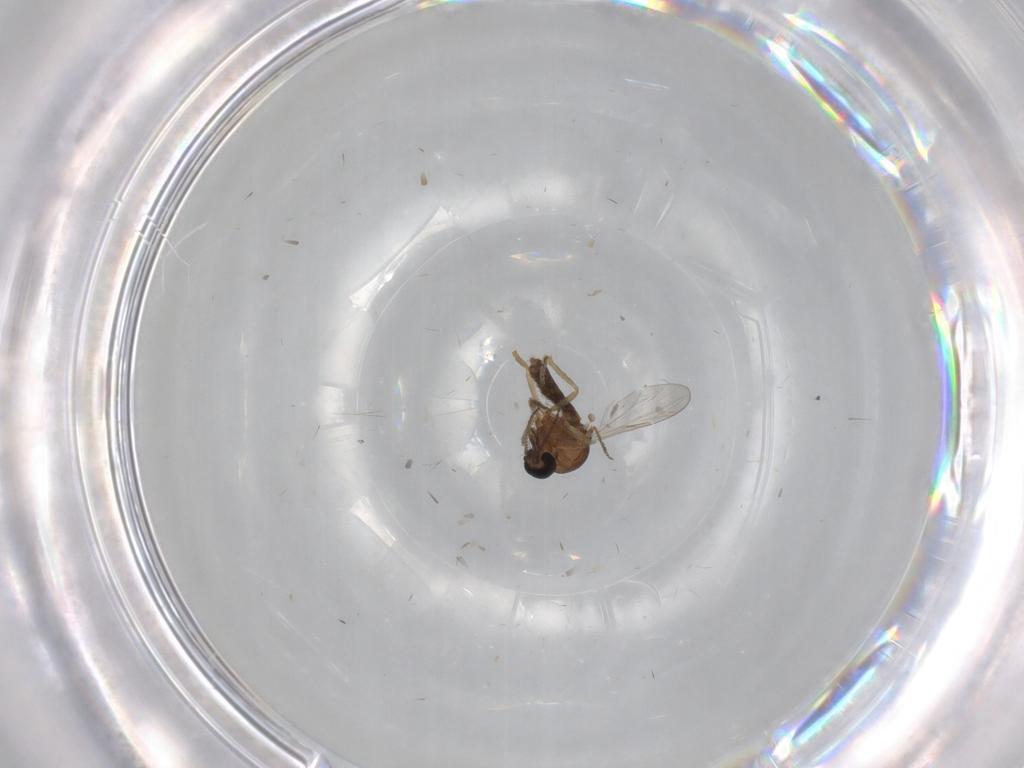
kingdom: Animalia
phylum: Arthropoda
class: Insecta
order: Diptera
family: Ceratopogonidae
